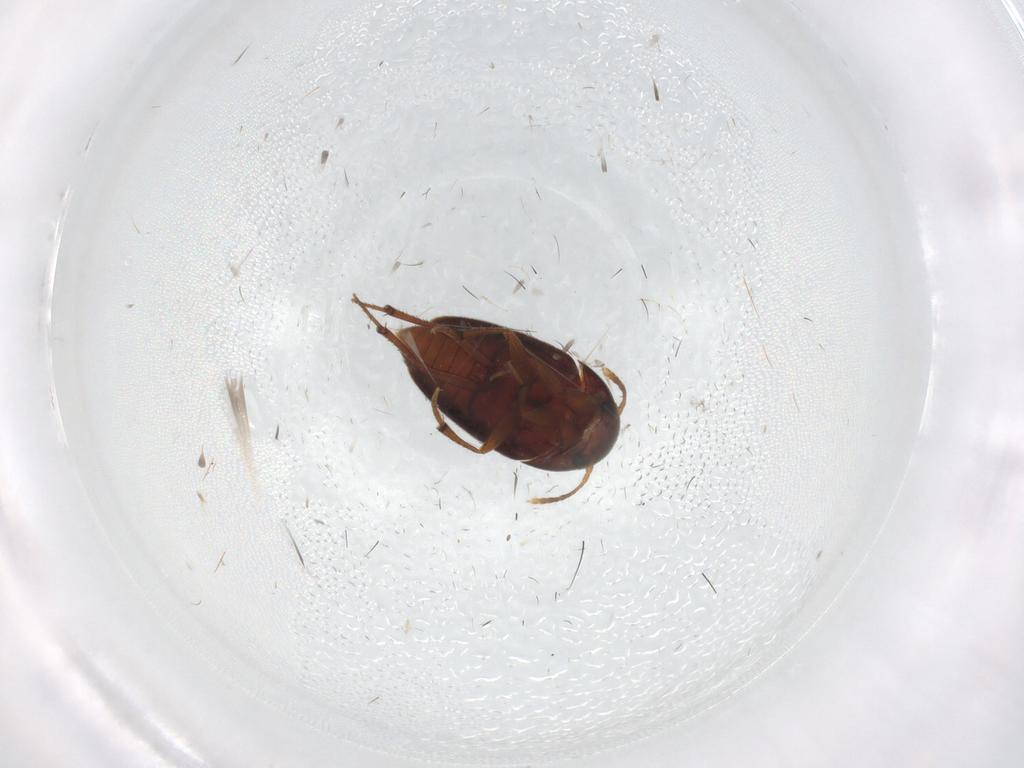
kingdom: Animalia
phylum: Arthropoda
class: Insecta
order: Coleoptera
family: Leiodidae
